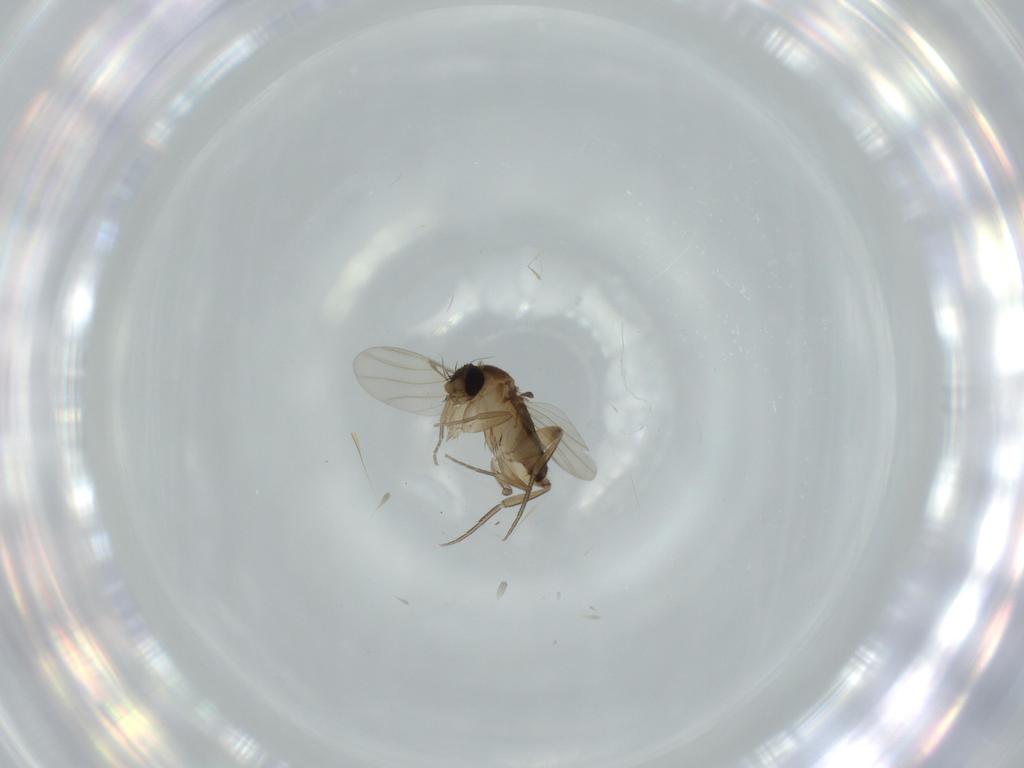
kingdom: Animalia
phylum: Arthropoda
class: Insecta
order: Diptera
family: Phoridae
